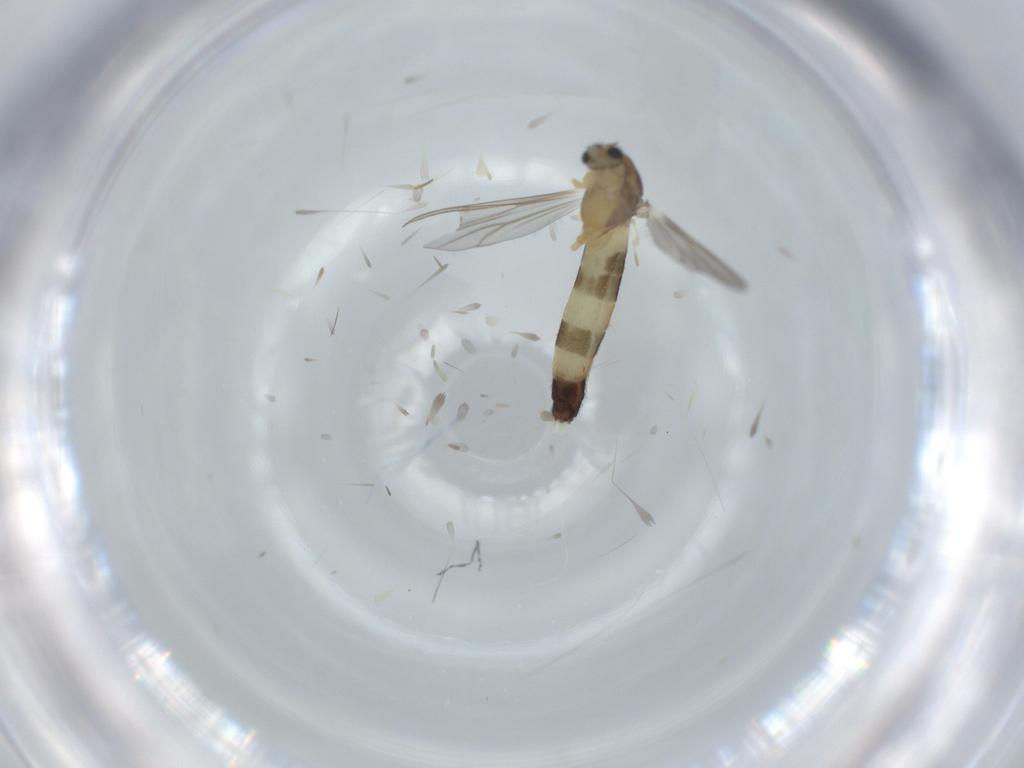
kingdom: Animalia
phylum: Arthropoda
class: Insecta
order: Diptera
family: Chironomidae
